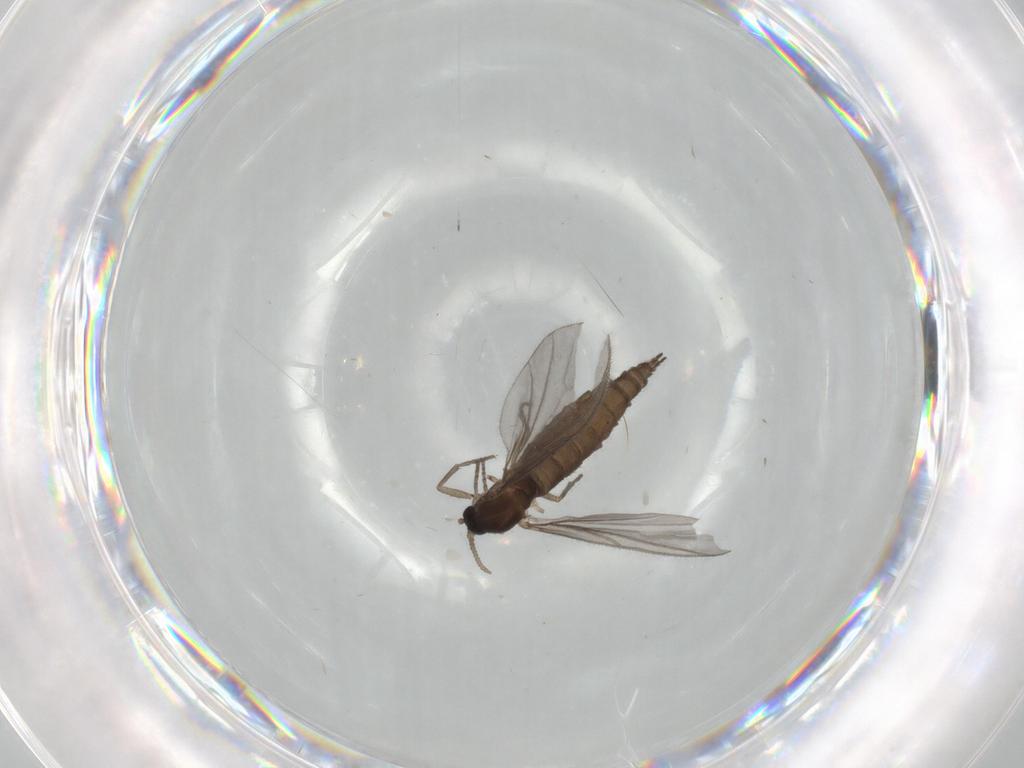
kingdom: Animalia
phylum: Arthropoda
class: Insecta
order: Diptera
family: Sciaridae
